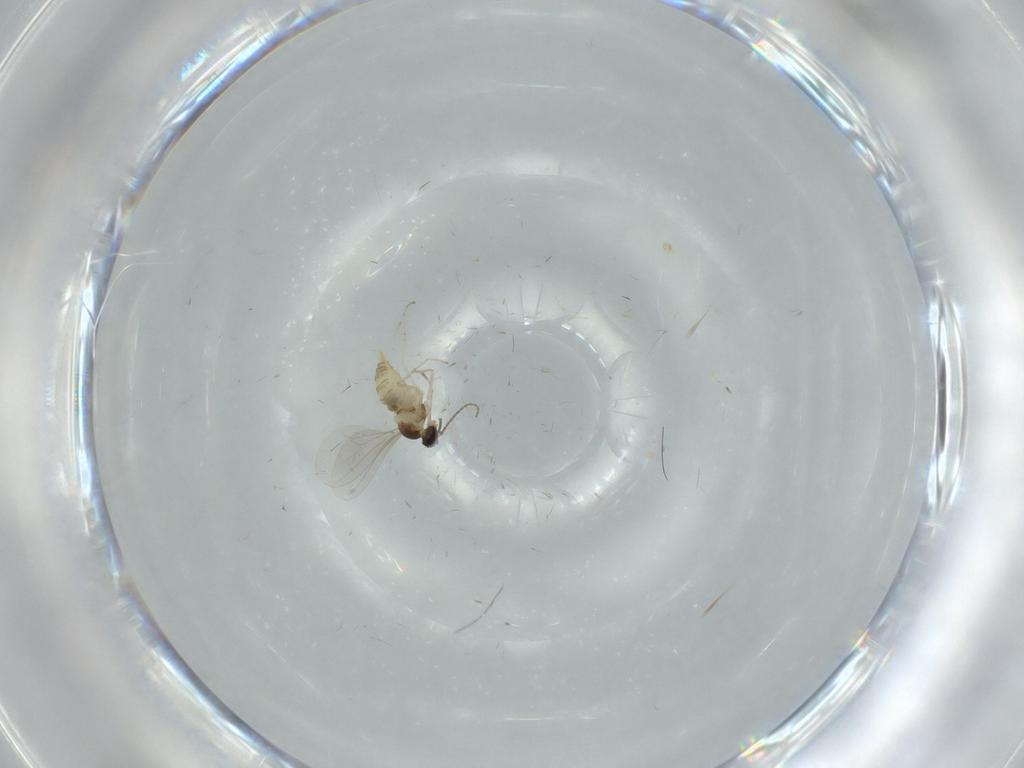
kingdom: Animalia
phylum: Arthropoda
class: Insecta
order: Diptera
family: Cecidomyiidae
